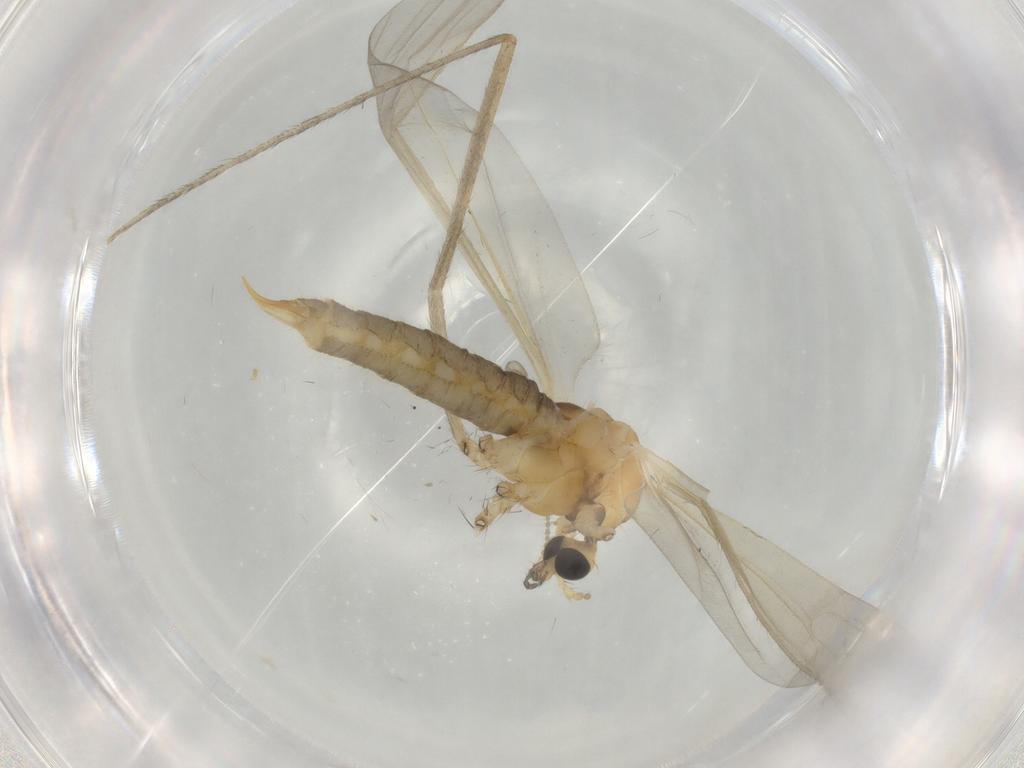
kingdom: Animalia
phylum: Arthropoda
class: Insecta
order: Diptera
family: Limoniidae
